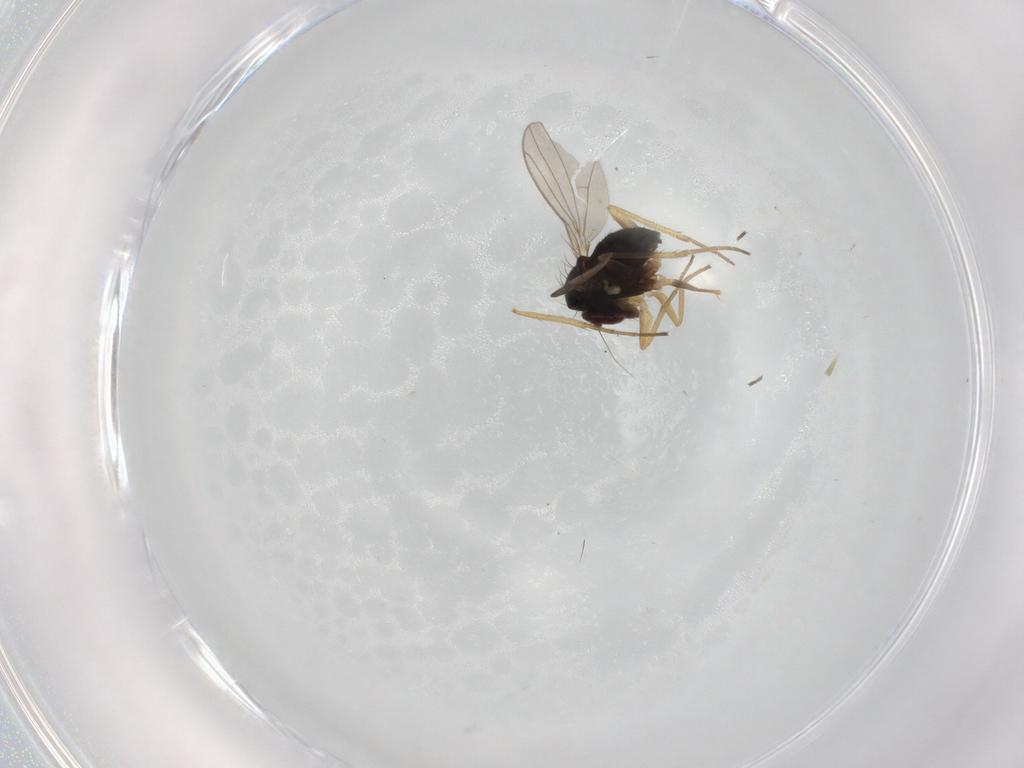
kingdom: Animalia
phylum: Arthropoda
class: Insecta
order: Diptera
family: Dolichopodidae
